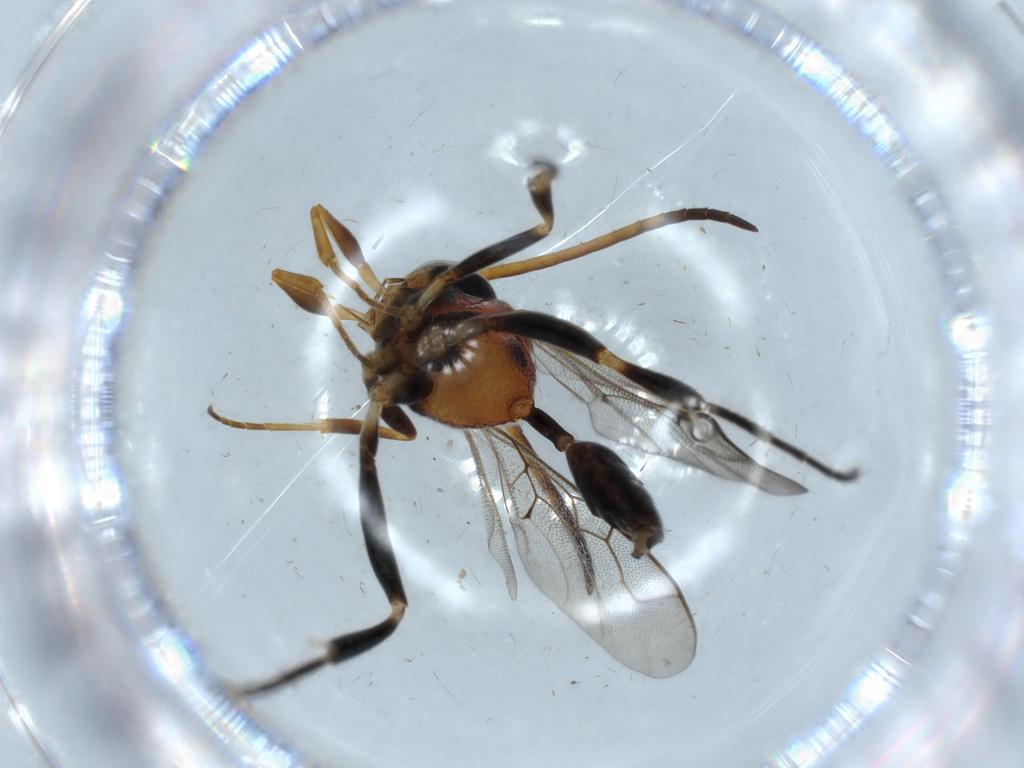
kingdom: Animalia
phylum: Arthropoda
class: Insecta
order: Hymenoptera
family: Evaniidae
